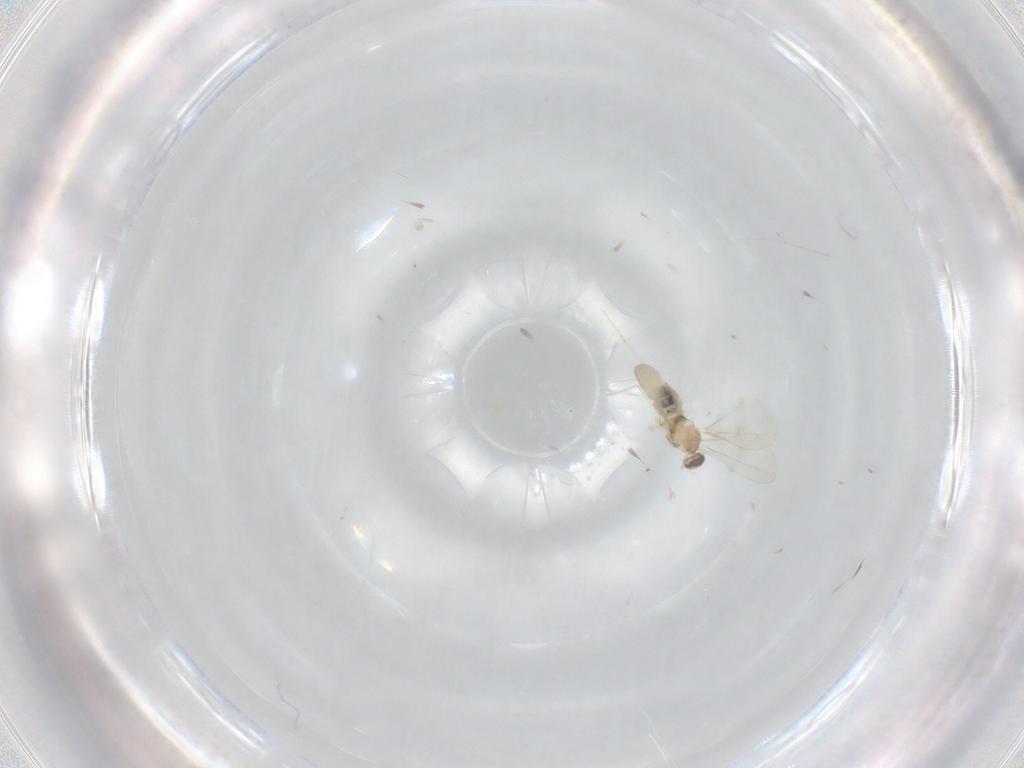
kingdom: Animalia
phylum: Arthropoda
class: Insecta
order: Diptera
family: Cecidomyiidae
